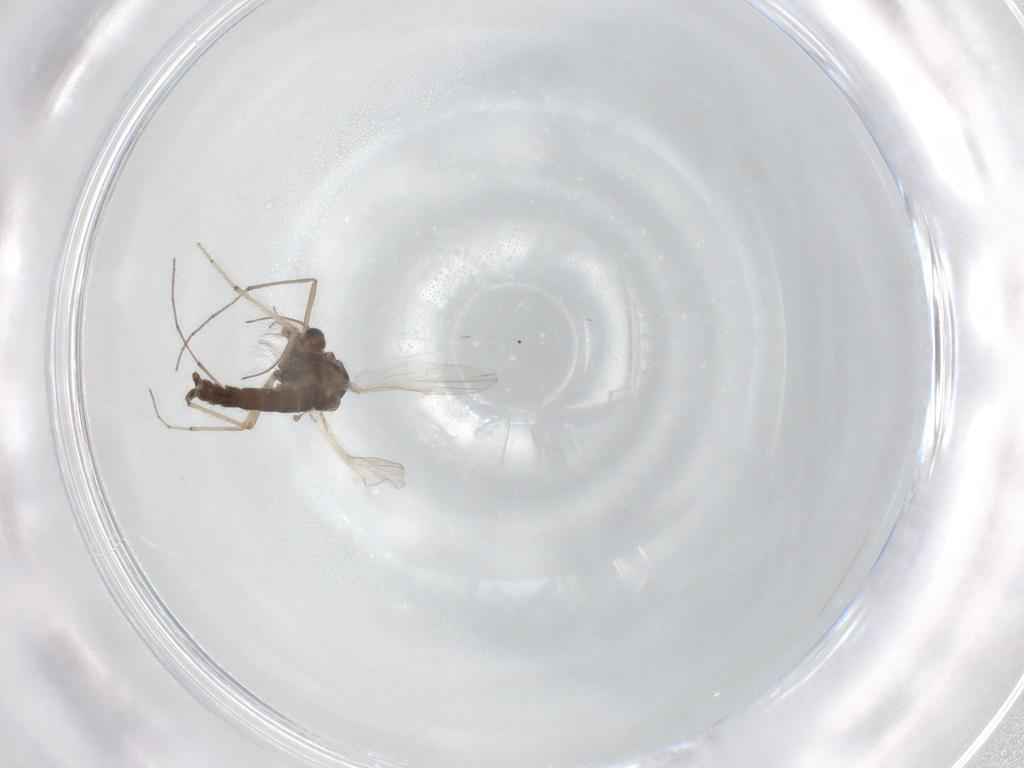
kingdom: Animalia
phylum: Arthropoda
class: Insecta
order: Diptera
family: Chironomidae
